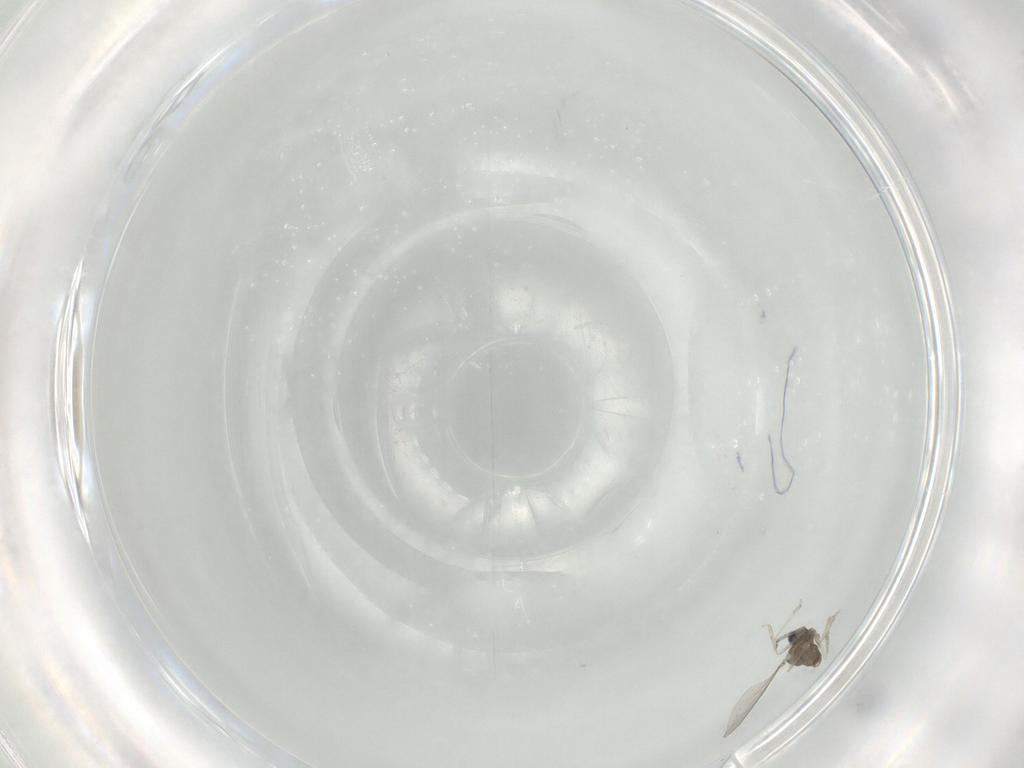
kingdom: Animalia
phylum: Arthropoda
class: Insecta
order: Diptera
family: Cecidomyiidae
